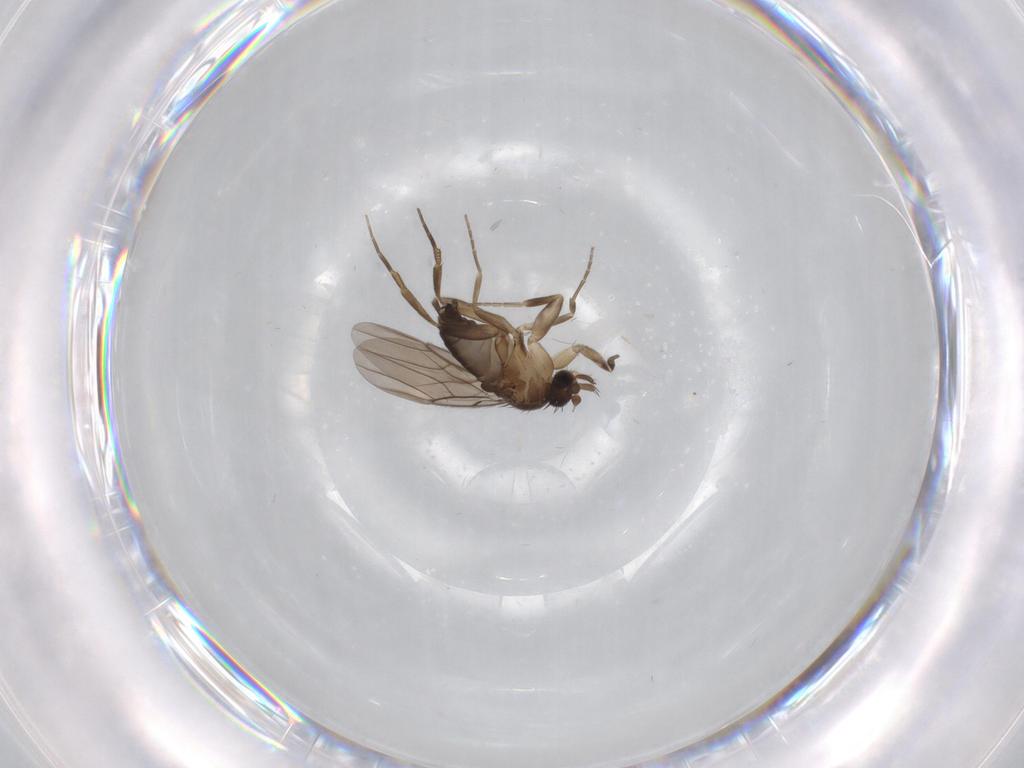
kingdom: Animalia
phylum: Arthropoda
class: Insecta
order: Diptera
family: Phoridae
